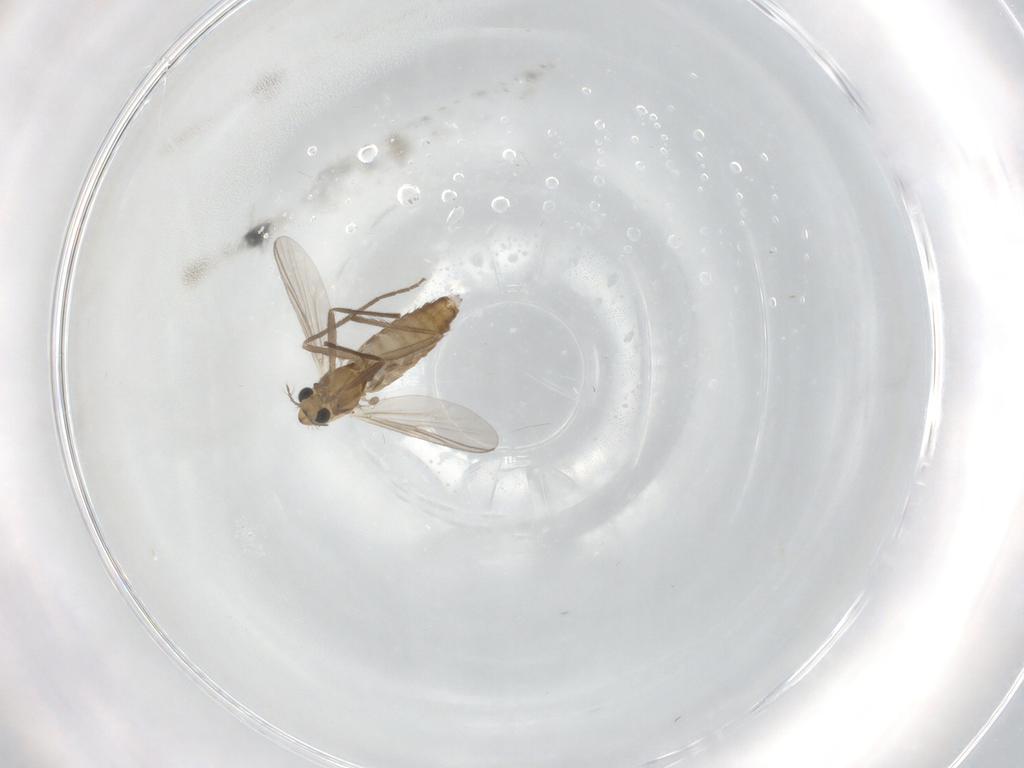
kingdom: Animalia
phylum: Arthropoda
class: Insecta
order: Diptera
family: Chironomidae
